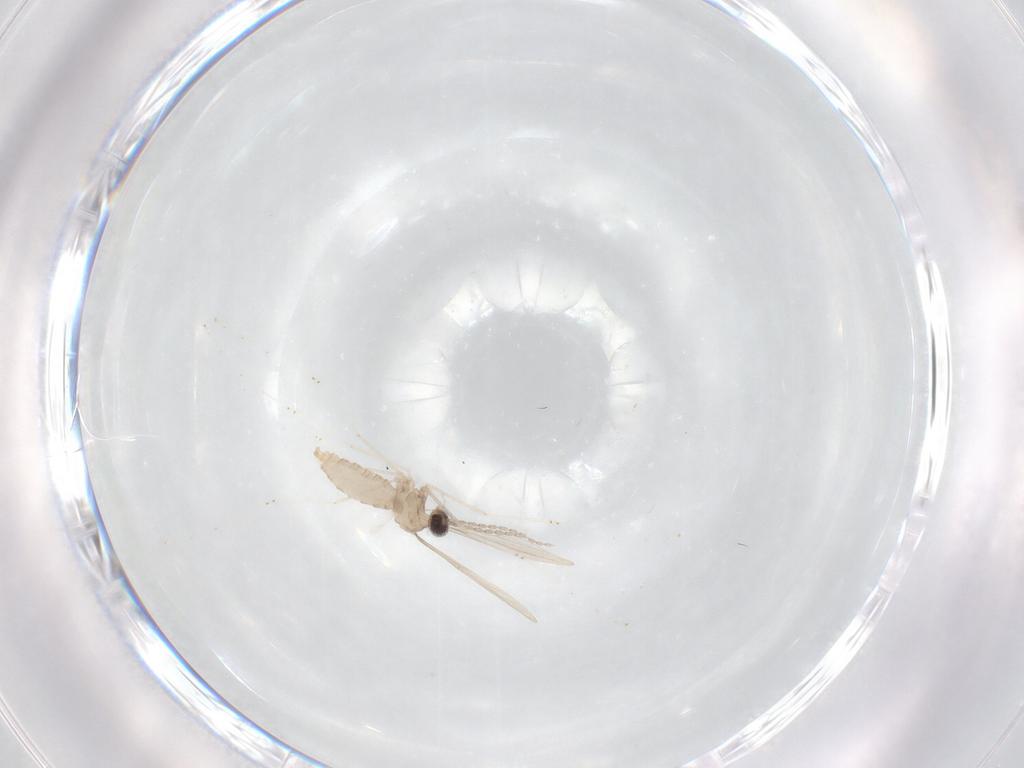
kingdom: Animalia
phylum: Arthropoda
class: Insecta
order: Diptera
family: Cecidomyiidae
